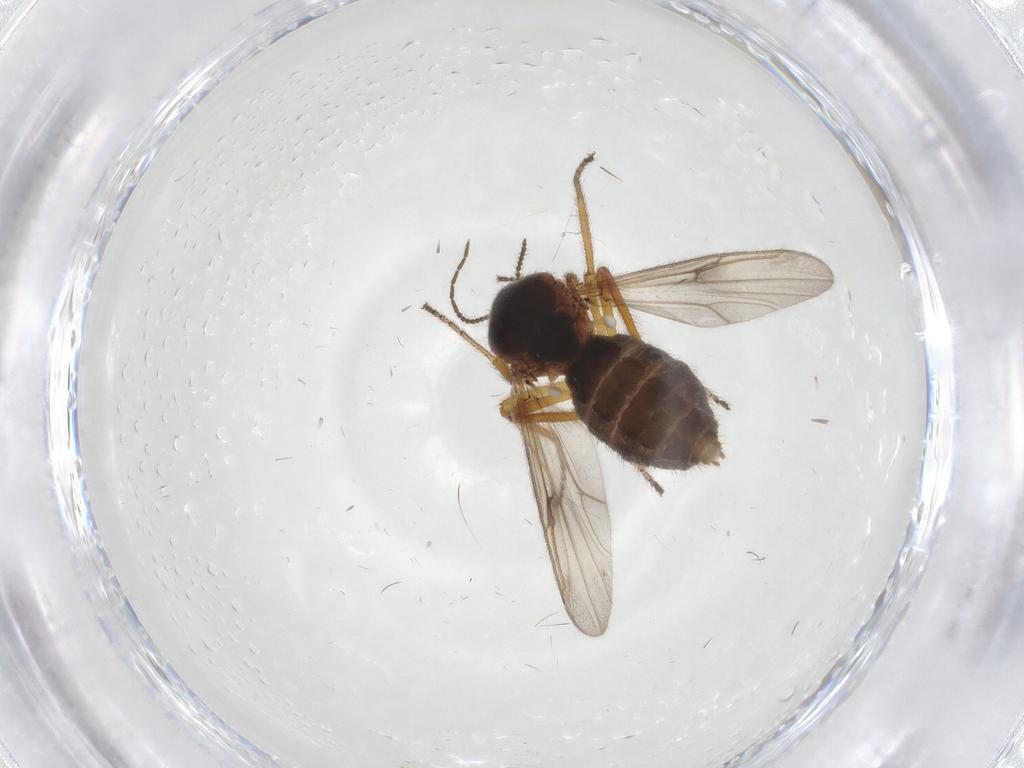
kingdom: Animalia
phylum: Arthropoda
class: Insecta
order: Diptera
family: Ceratopogonidae
